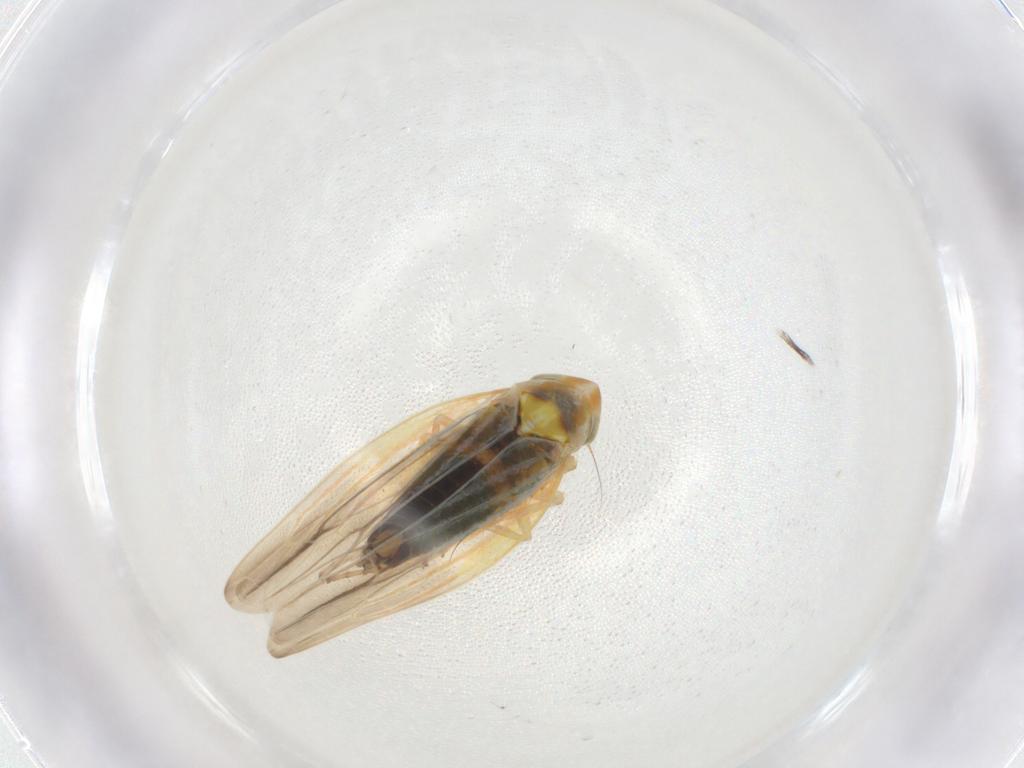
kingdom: Animalia
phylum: Arthropoda
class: Insecta
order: Hemiptera
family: Cicadellidae
